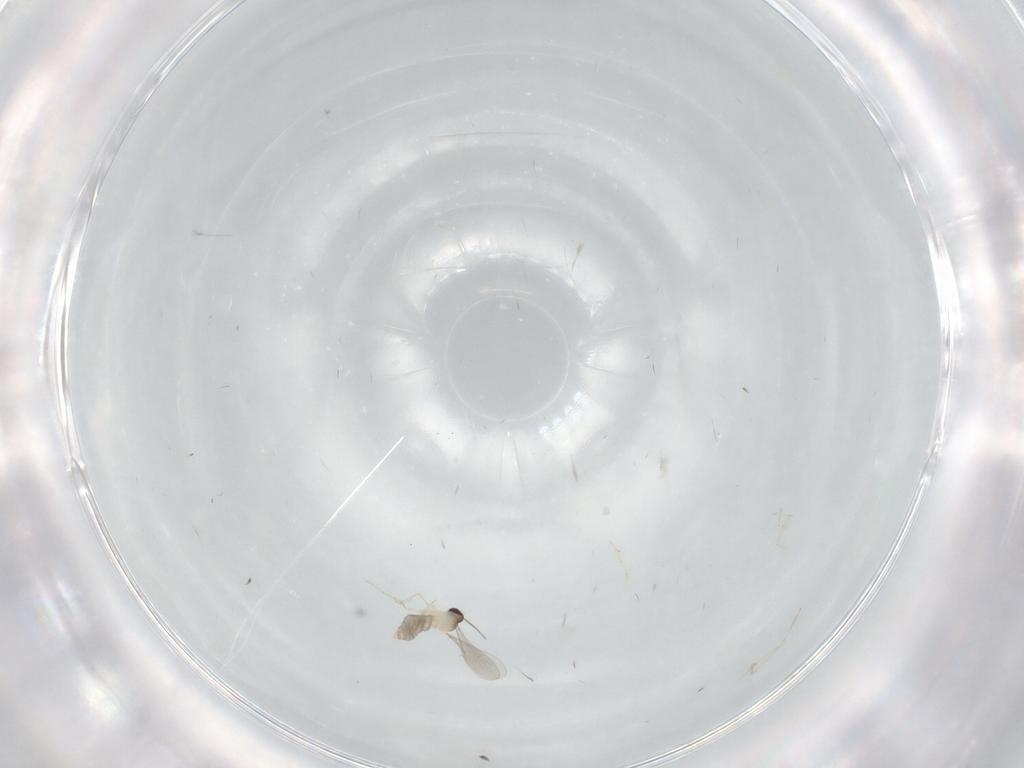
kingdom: Animalia
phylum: Arthropoda
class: Insecta
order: Diptera
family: Cecidomyiidae
